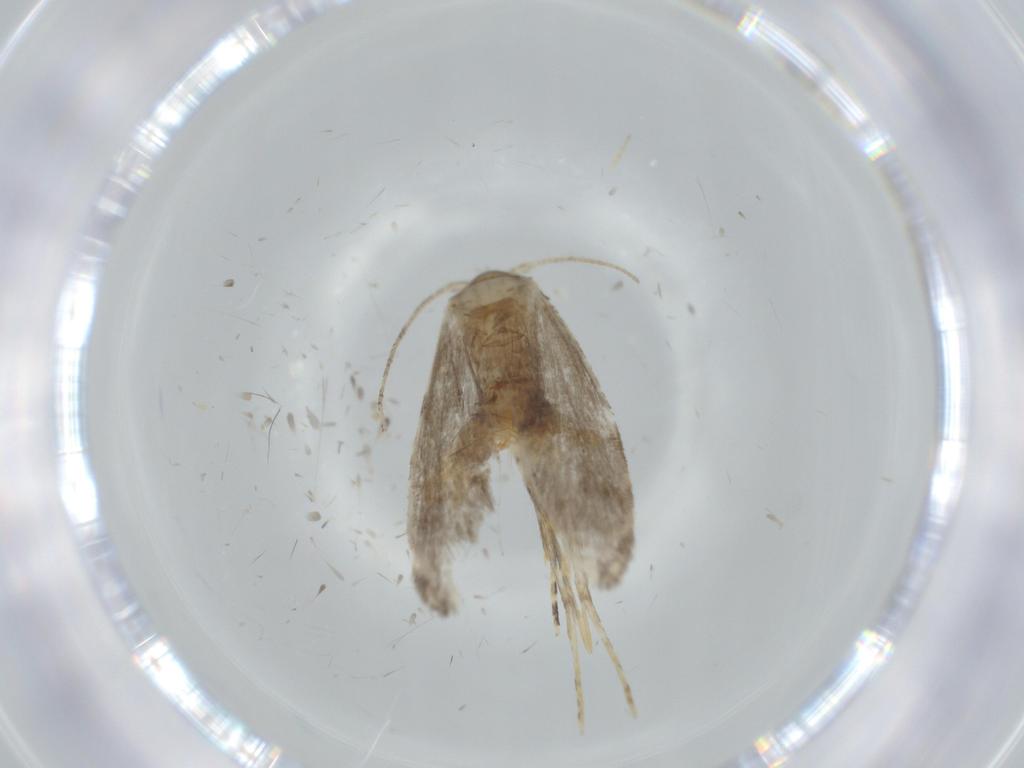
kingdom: Animalia
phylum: Arthropoda
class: Insecta
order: Lepidoptera
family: Tineidae
